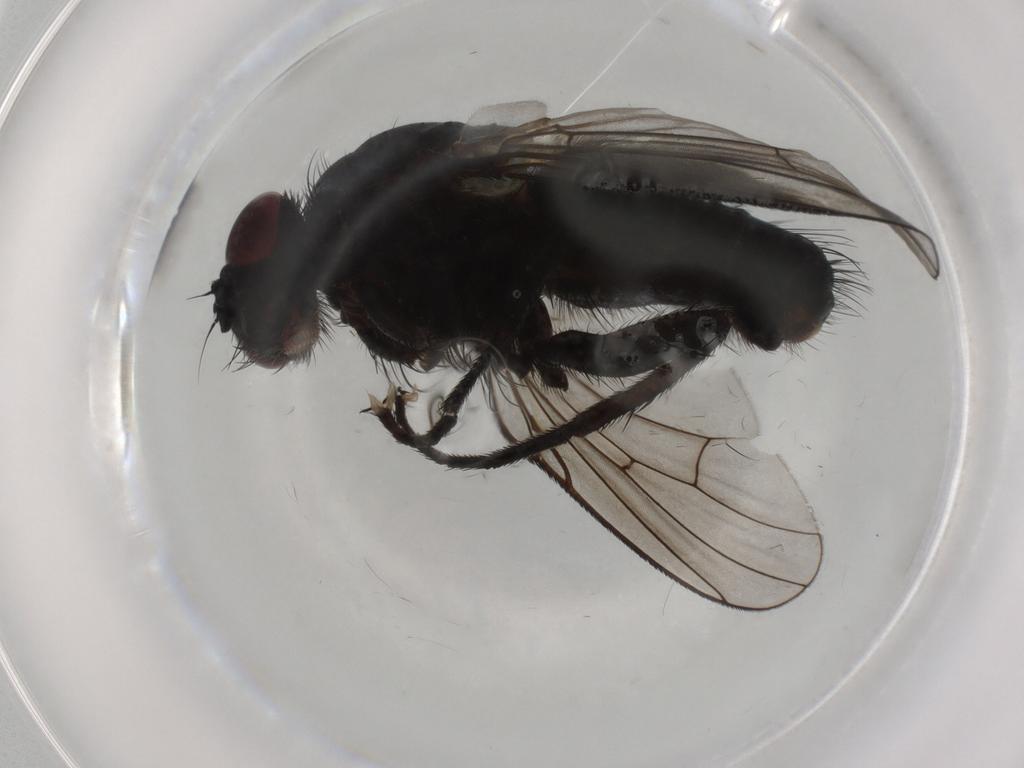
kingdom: Animalia
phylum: Arthropoda
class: Insecta
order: Diptera
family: Muscidae
